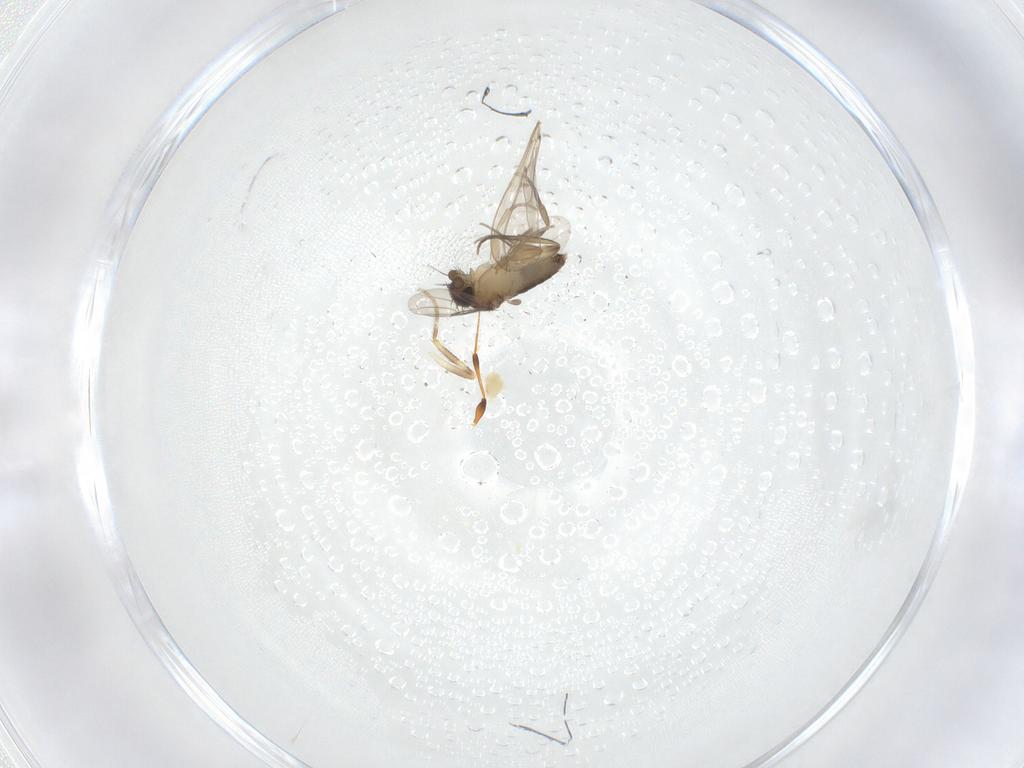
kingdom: Animalia
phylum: Arthropoda
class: Insecta
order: Diptera
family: Phoridae
